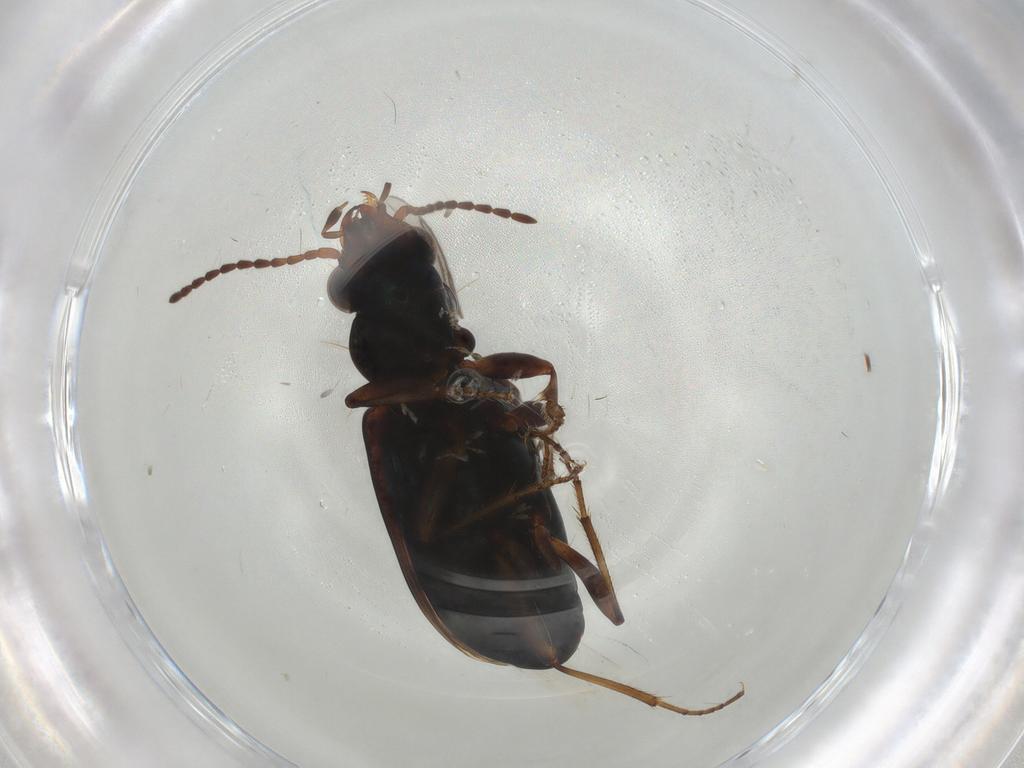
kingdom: Animalia
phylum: Arthropoda
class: Insecta
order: Coleoptera
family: Carabidae
